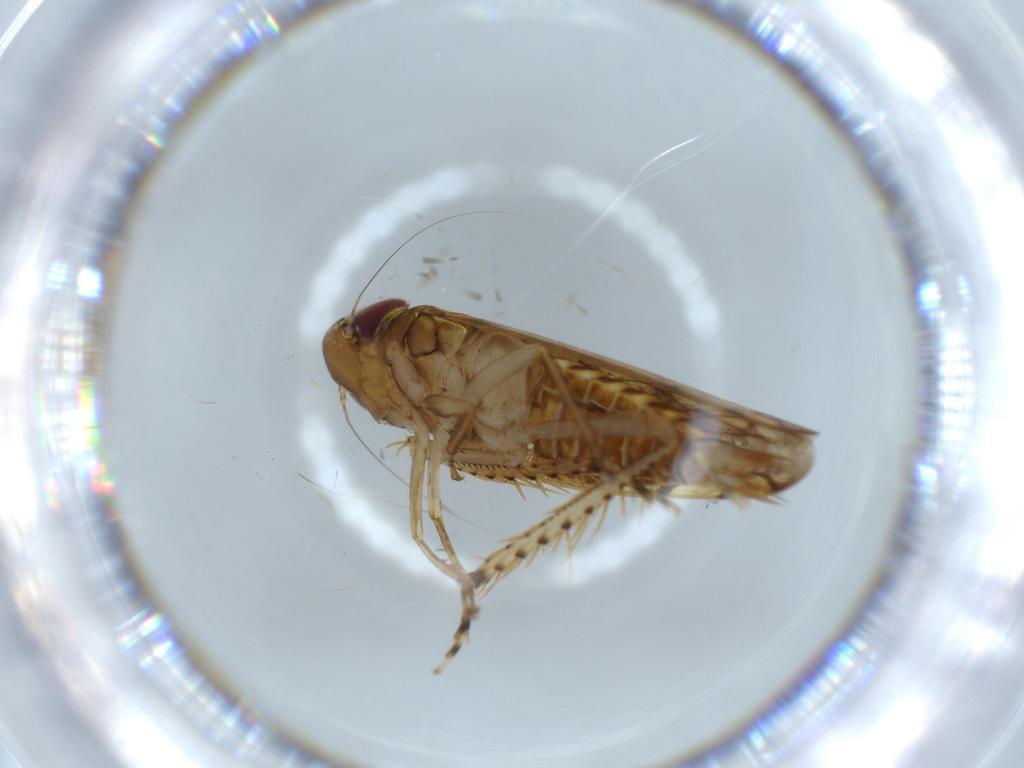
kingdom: Animalia
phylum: Arthropoda
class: Insecta
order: Hemiptera
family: Cicadellidae
